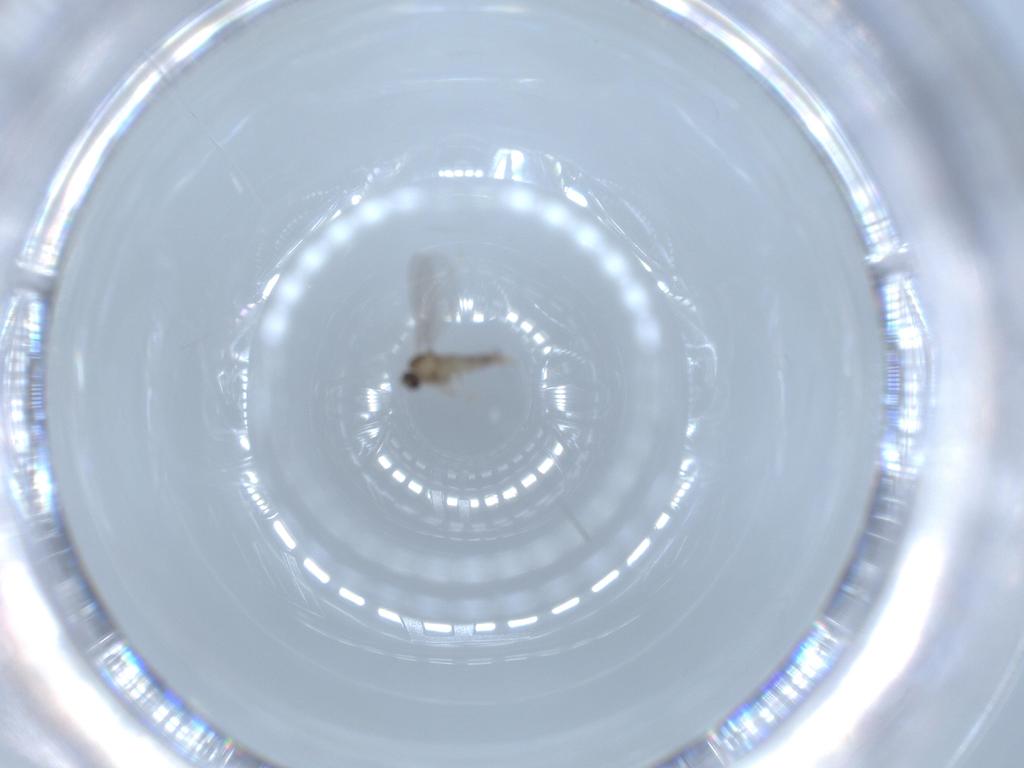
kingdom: Animalia
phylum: Arthropoda
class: Insecta
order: Diptera
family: Cecidomyiidae
